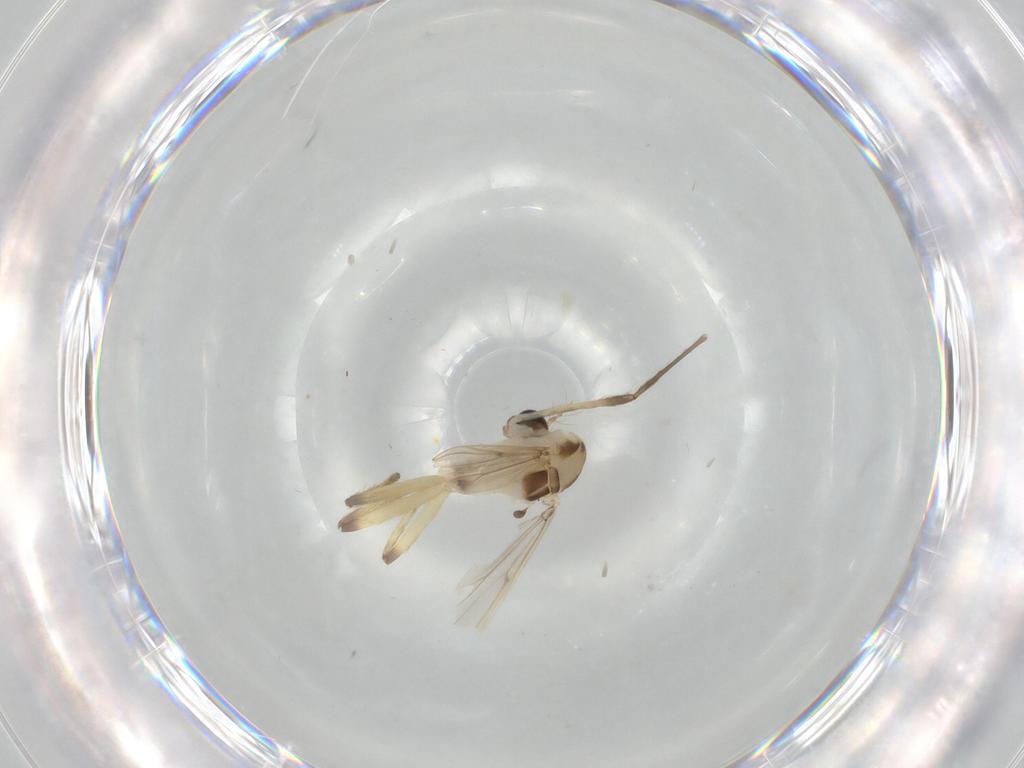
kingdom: Animalia
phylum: Arthropoda
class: Insecta
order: Diptera
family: Chironomidae
